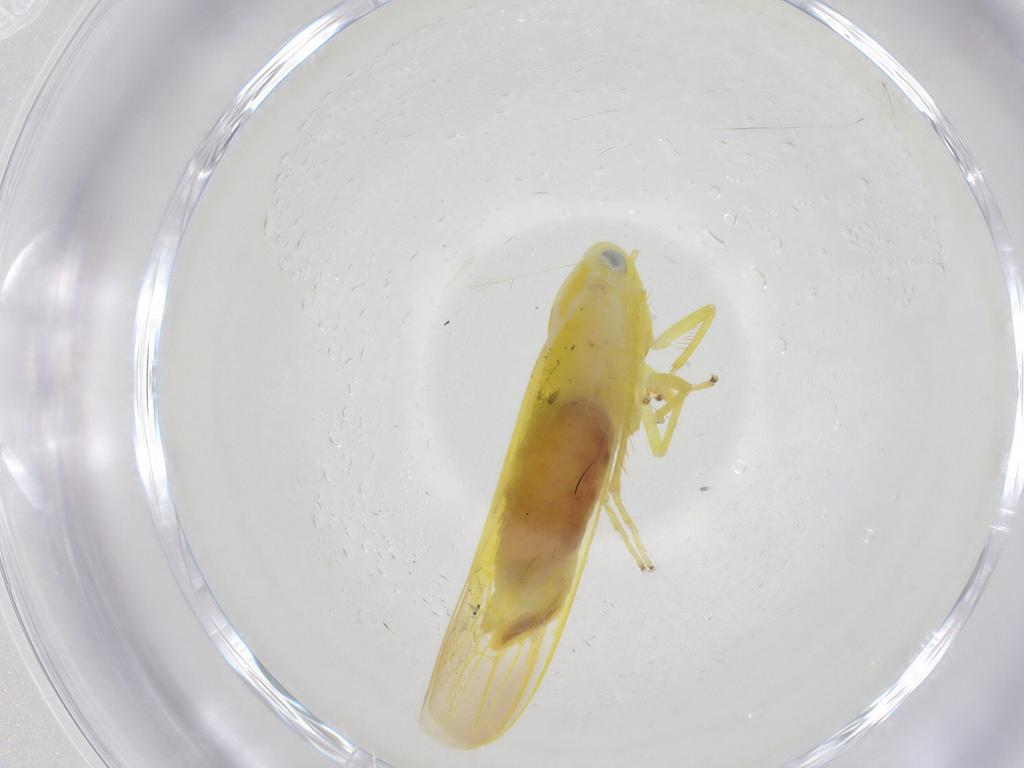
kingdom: Animalia
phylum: Arthropoda
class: Insecta
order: Hemiptera
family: Cicadellidae
